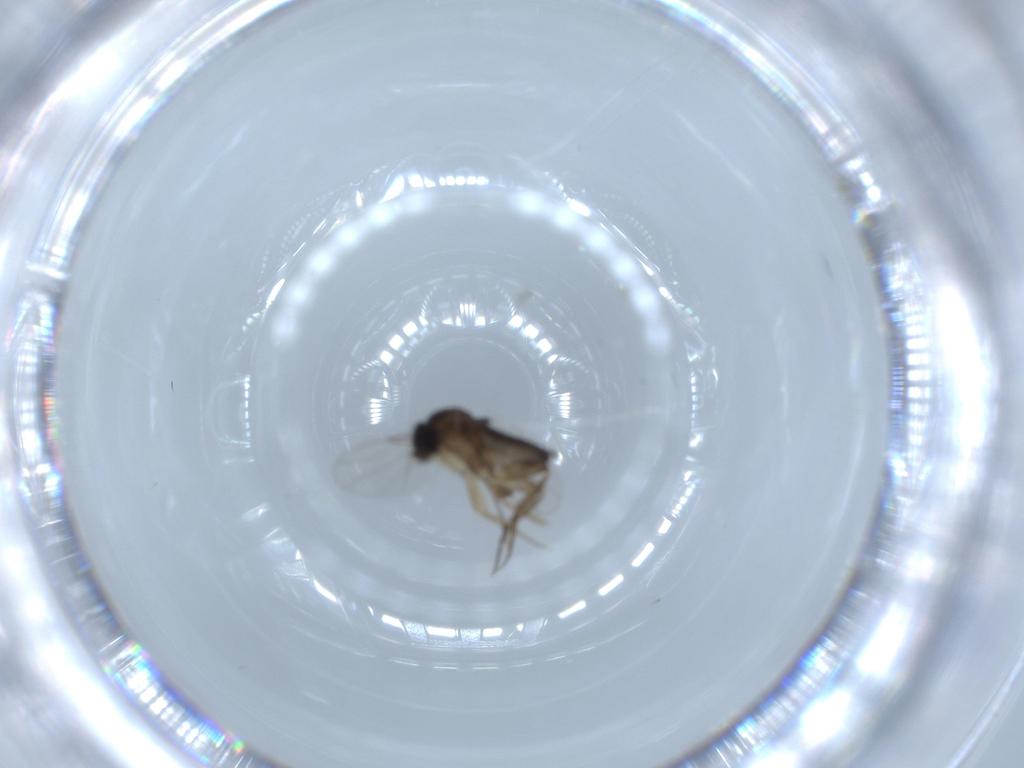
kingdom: Animalia
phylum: Arthropoda
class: Insecta
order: Diptera
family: Phoridae
